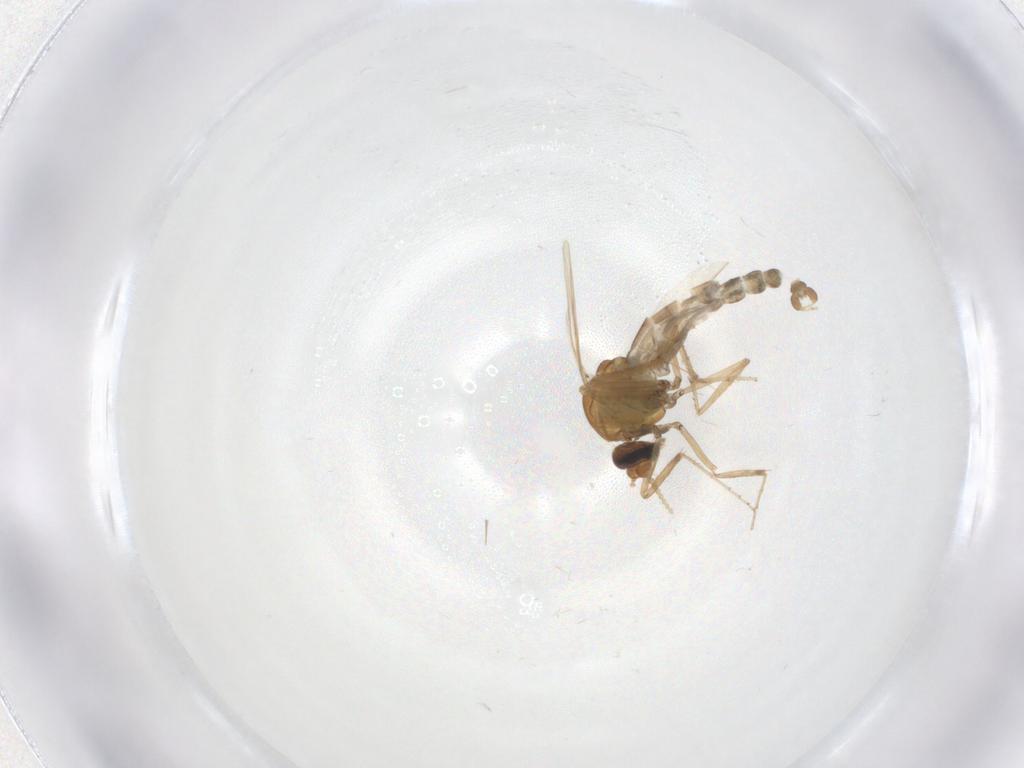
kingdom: Animalia
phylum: Arthropoda
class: Insecta
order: Diptera
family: Ceratopogonidae
